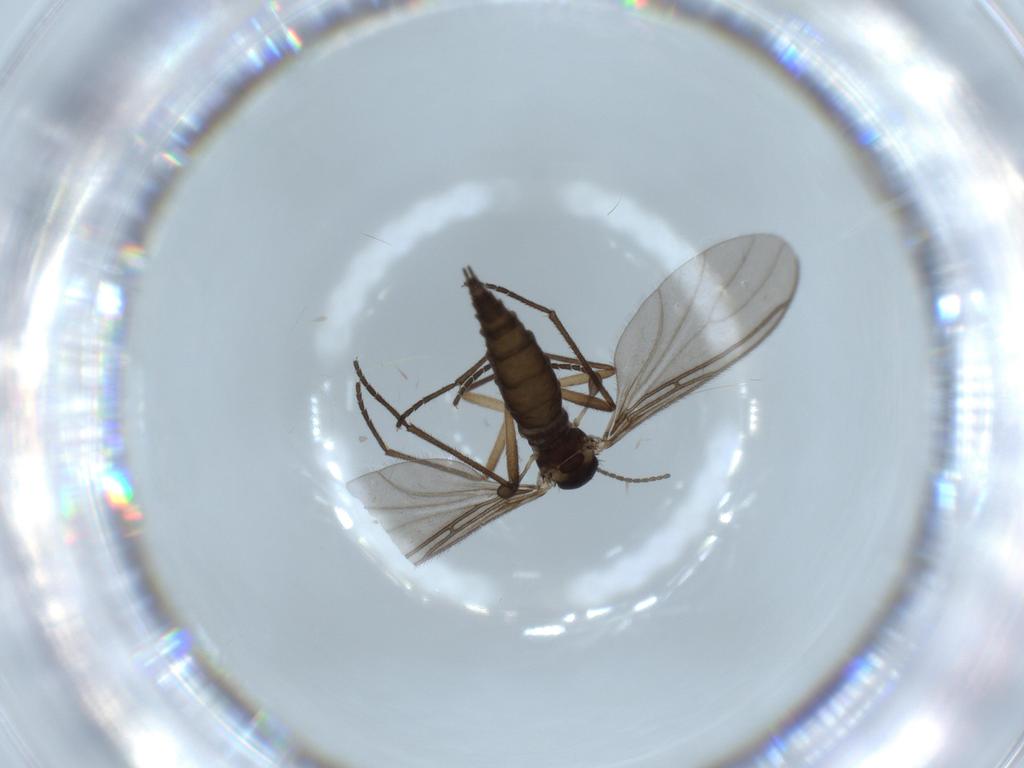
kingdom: Animalia
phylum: Arthropoda
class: Insecta
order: Diptera
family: Sciaridae
